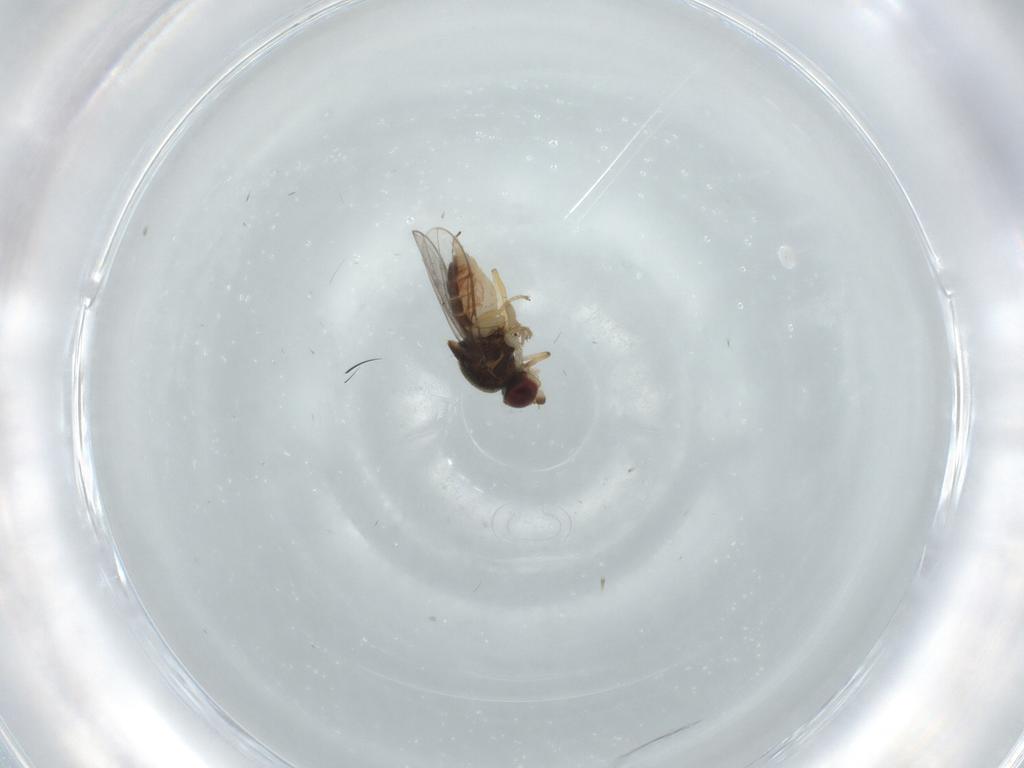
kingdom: Animalia
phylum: Arthropoda
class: Insecta
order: Diptera
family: Chloropidae
